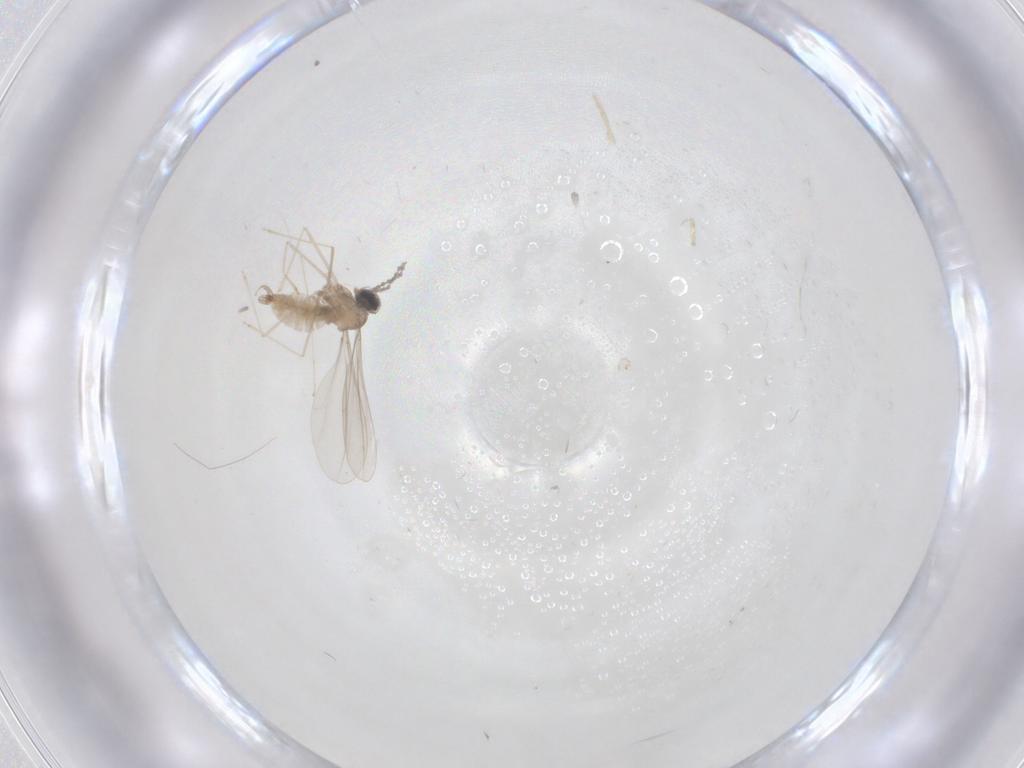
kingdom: Animalia
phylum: Arthropoda
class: Insecta
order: Diptera
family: Cecidomyiidae
